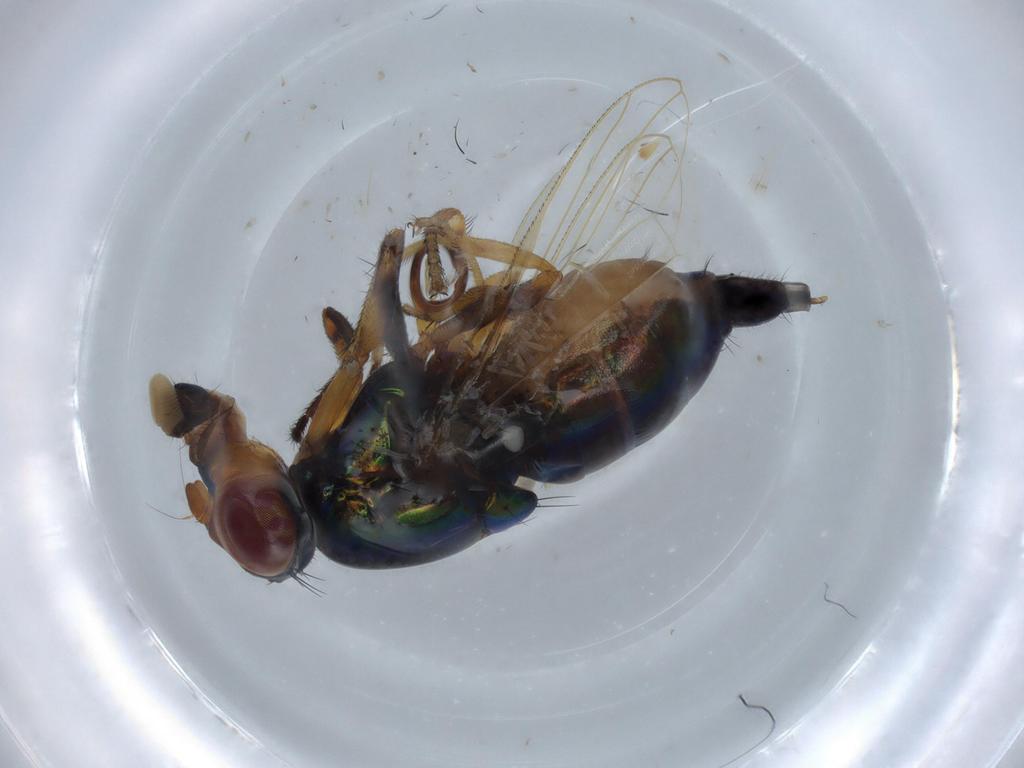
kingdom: Animalia
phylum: Arthropoda
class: Insecta
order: Diptera
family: Ulidiidae
